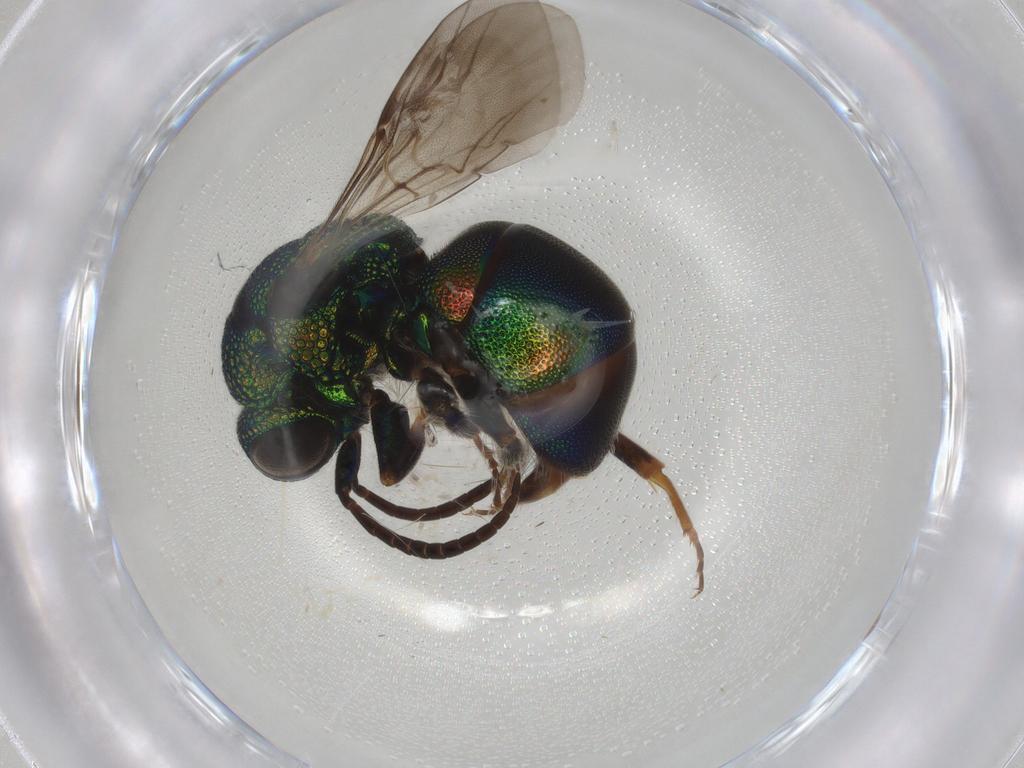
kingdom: Animalia
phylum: Arthropoda
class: Insecta
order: Hymenoptera
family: Chrysididae
